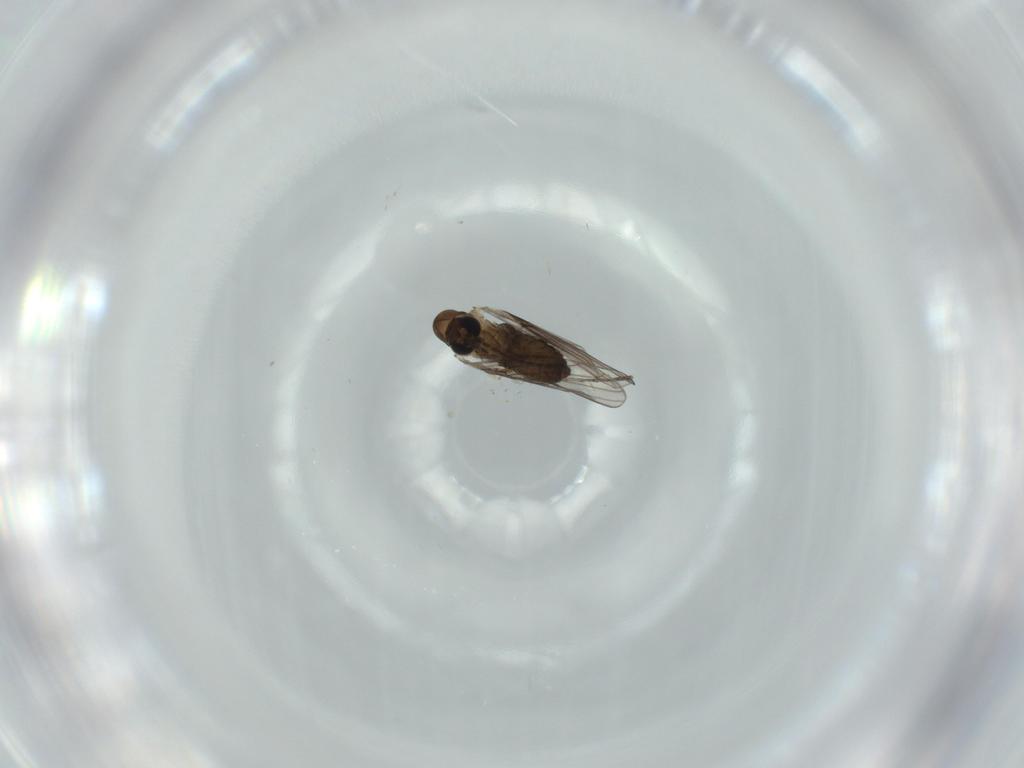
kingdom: Animalia
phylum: Arthropoda
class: Insecta
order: Diptera
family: Psychodidae
